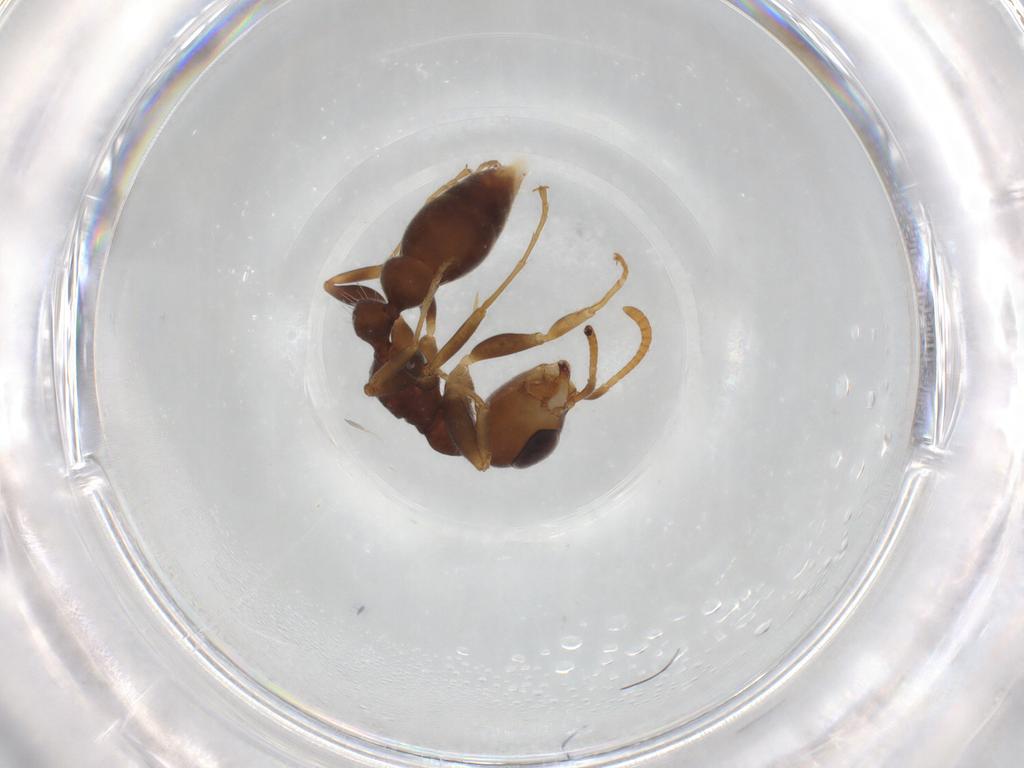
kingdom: Animalia
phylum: Arthropoda
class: Insecta
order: Hymenoptera
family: Formicidae
